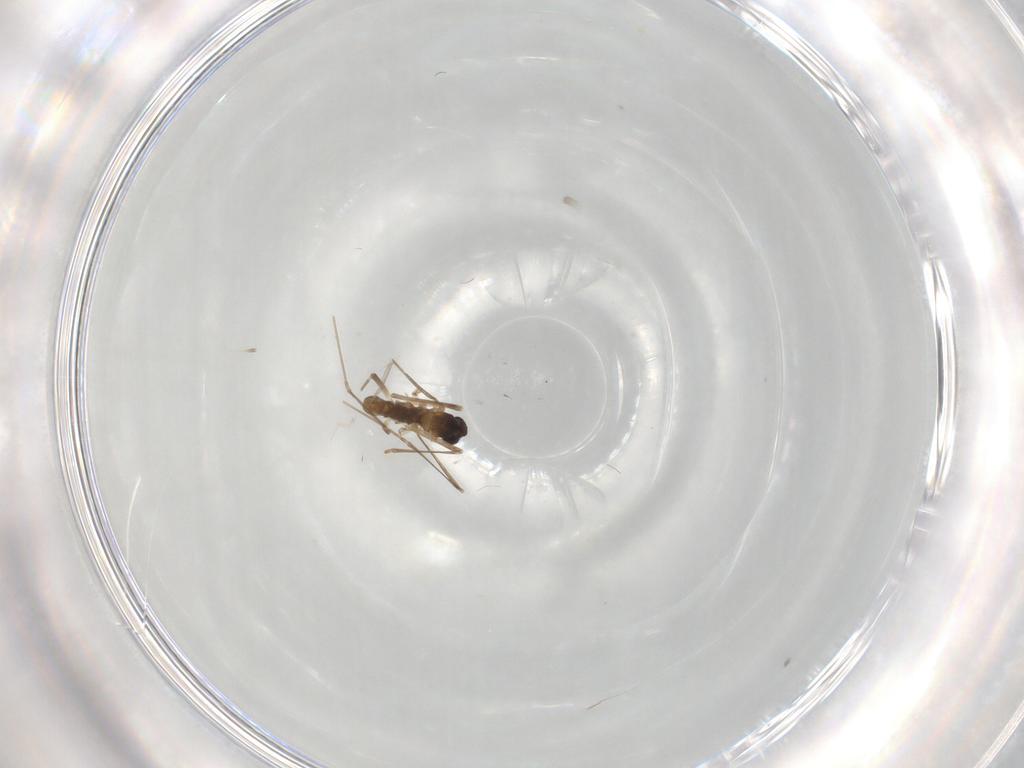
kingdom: Animalia
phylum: Arthropoda
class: Insecta
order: Diptera
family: Cecidomyiidae
